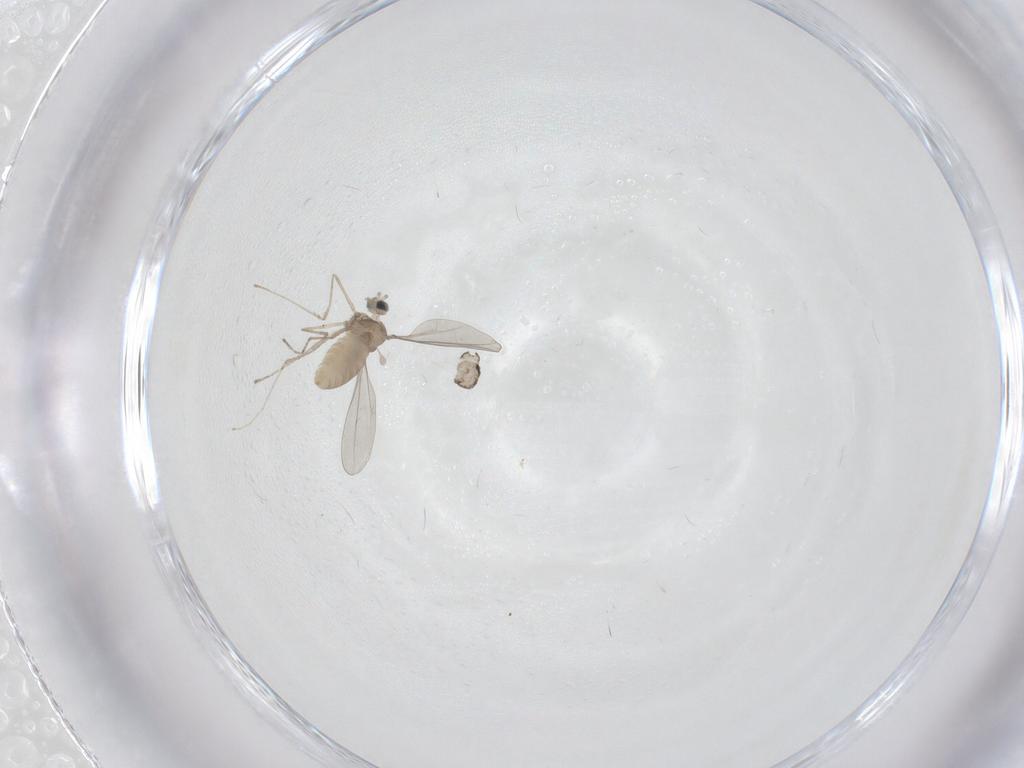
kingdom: Animalia
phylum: Arthropoda
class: Insecta
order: Diptera
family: Cecidomyiidae
